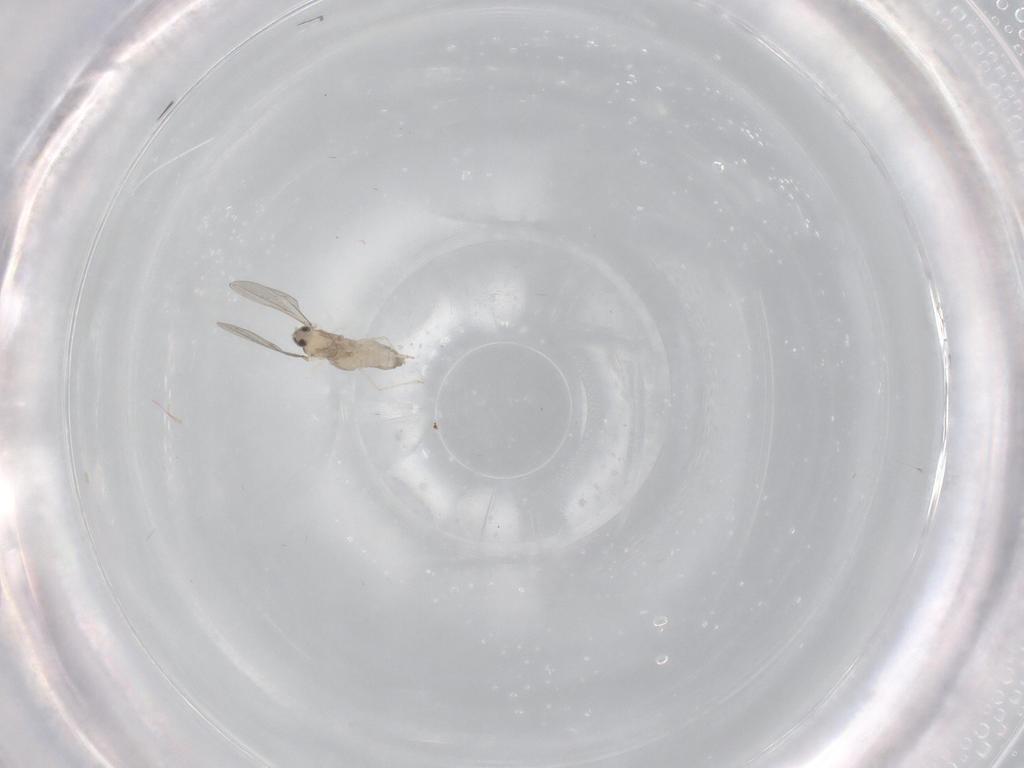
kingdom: Animalia
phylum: Arthropoda
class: Insecta
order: Diptera
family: Cecidomyiidae
